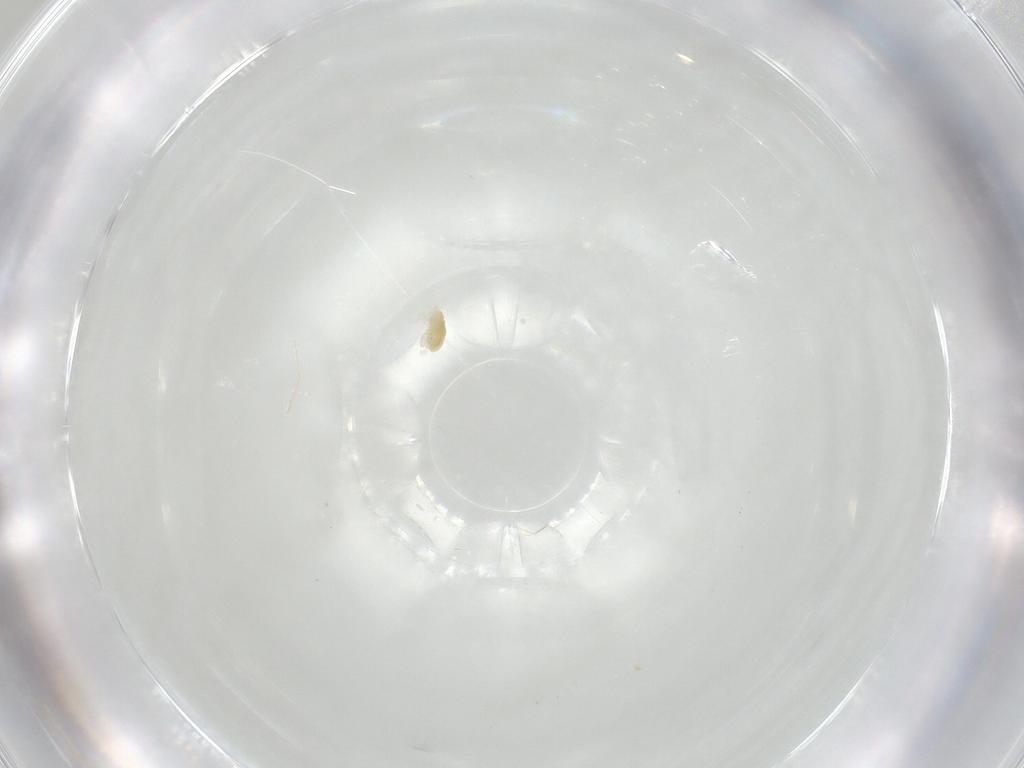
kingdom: Animalia
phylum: Arthropoda
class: Arachnida
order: Trombidiformes
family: Eupodidae
